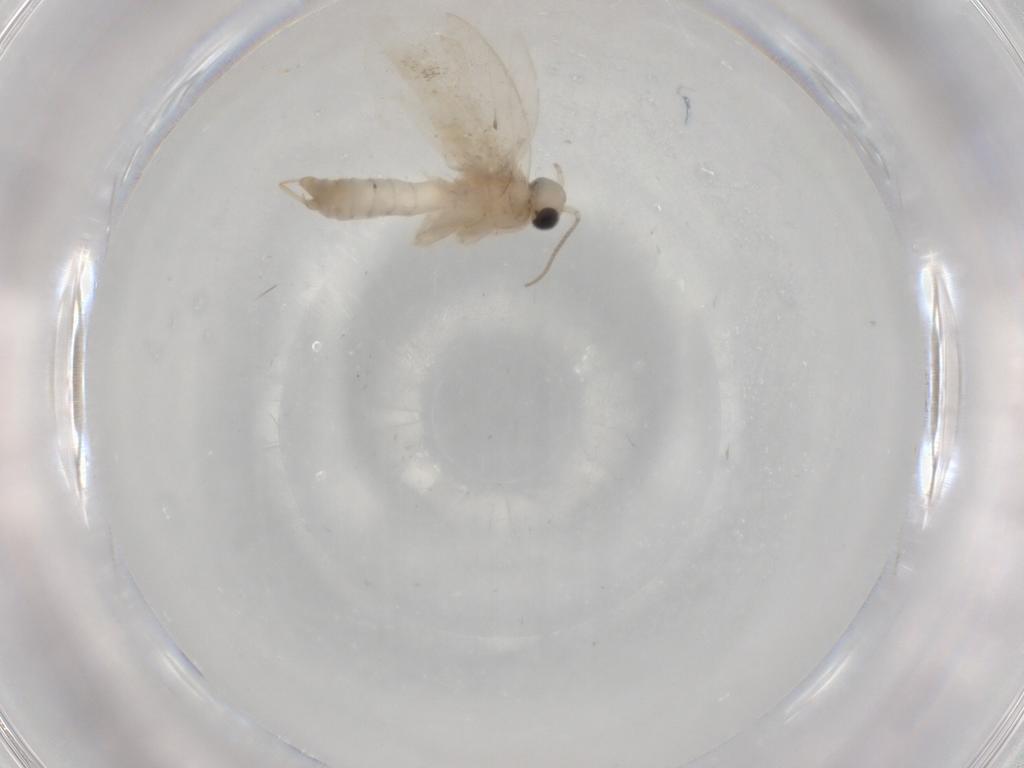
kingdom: Animalia
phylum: Arthropoda
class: Insecta
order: Lepidoptera
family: Psychidae
